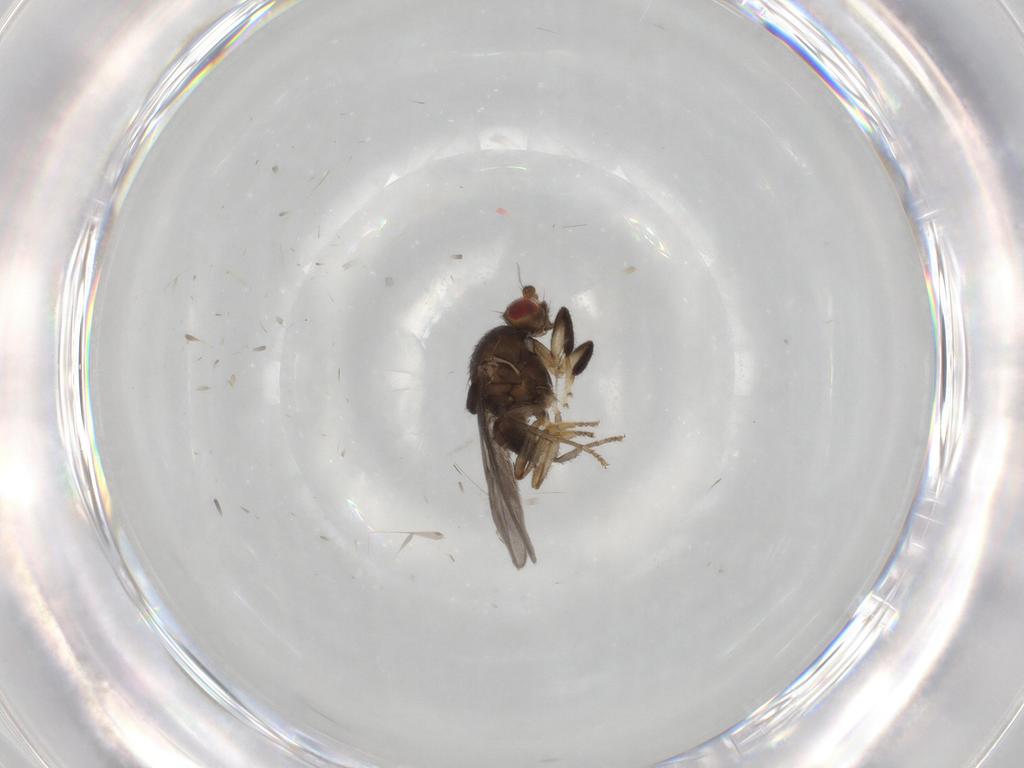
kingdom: Animalia
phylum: Arthropoda
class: Insecta
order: Diptera
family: Sphaeroceridae
